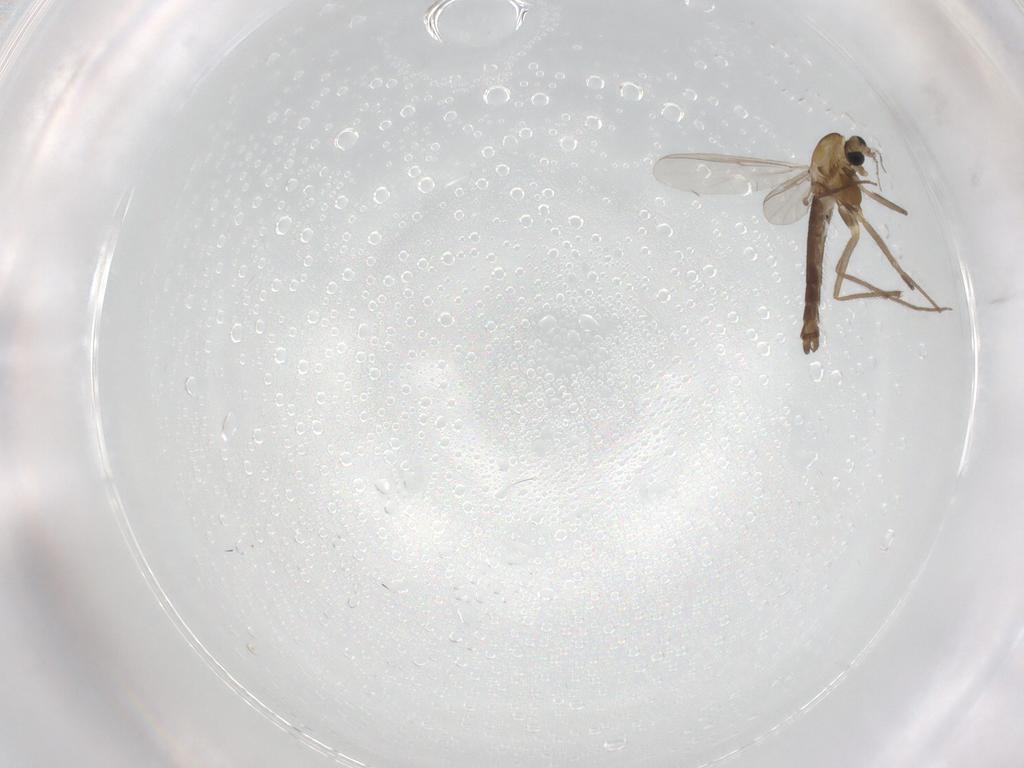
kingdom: Animalia
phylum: Arthropoda
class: Insecta
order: Diptera
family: Chironomidae
